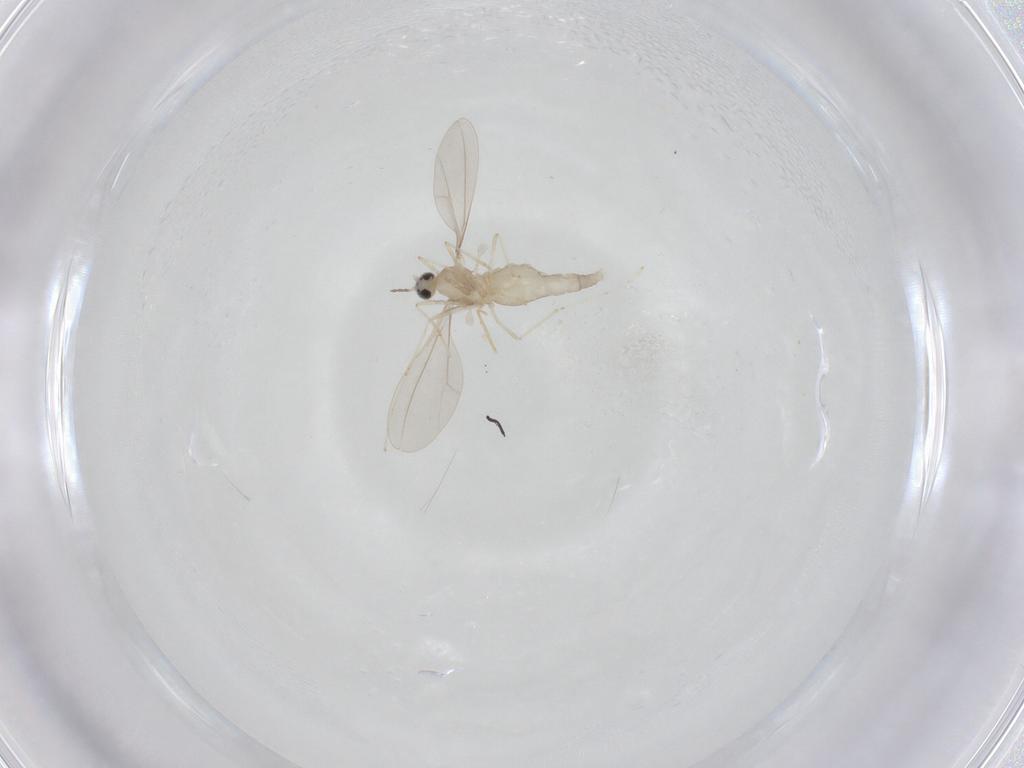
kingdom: Animalia
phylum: Arthropoda
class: Insecta
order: Diptera
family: Cecidomyiidae
